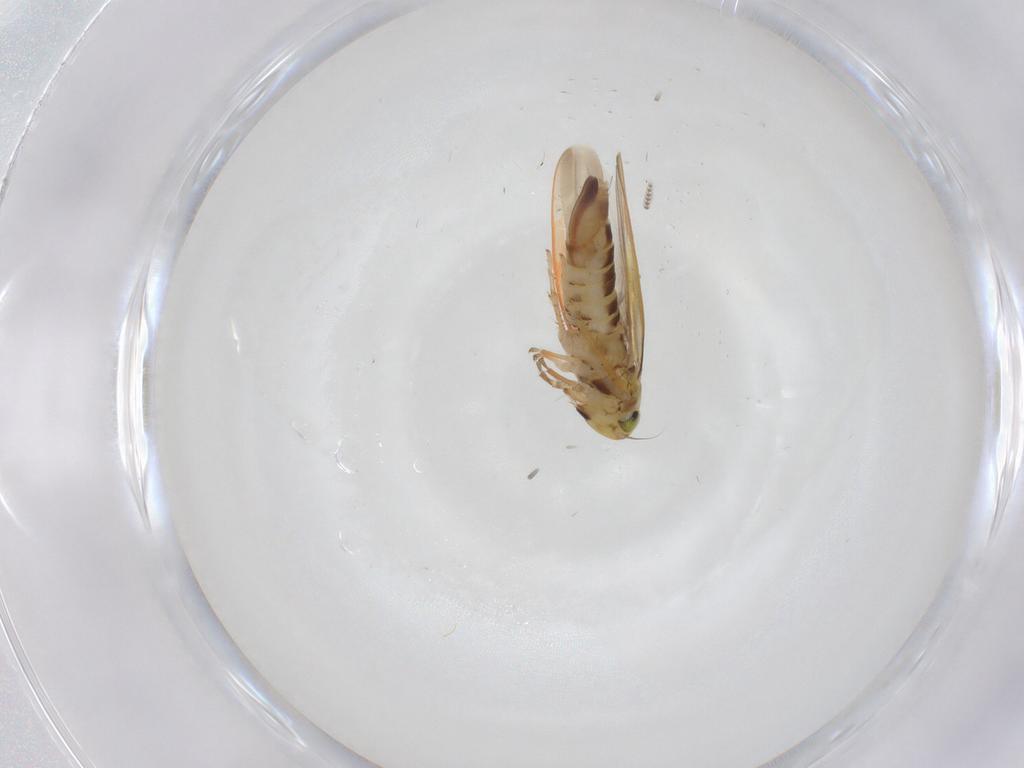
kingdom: Animalia
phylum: Arthropoda
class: Insecta
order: Hemiptera
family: Cicadellidae
